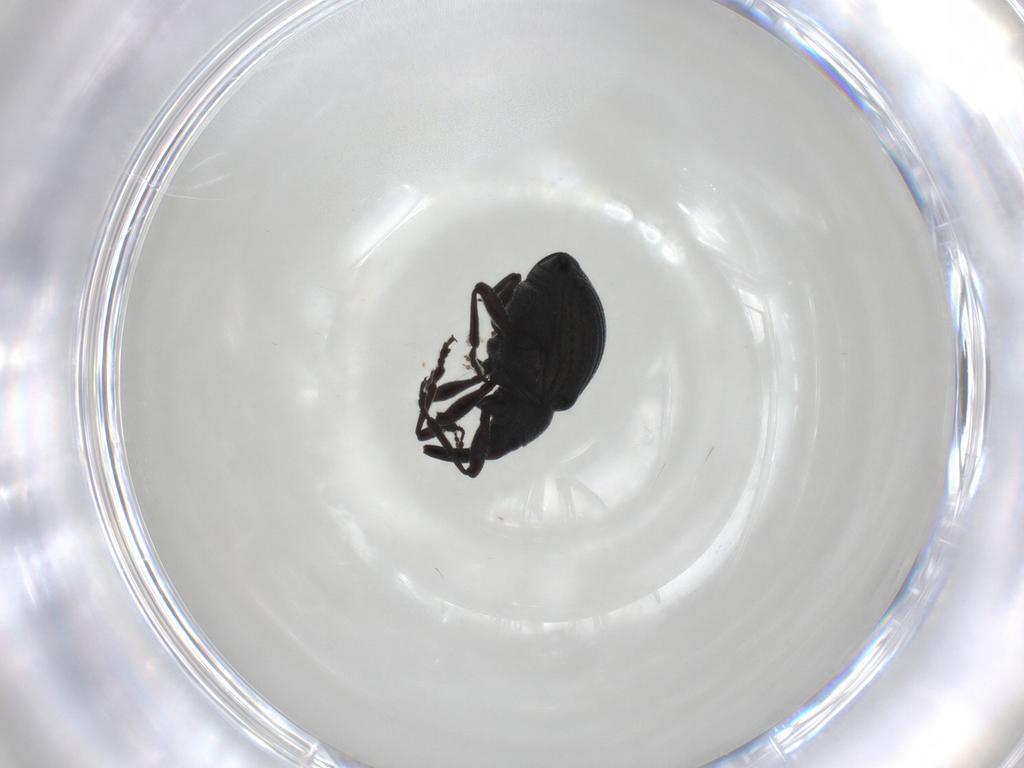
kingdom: Animalia
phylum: Arthropoda
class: Insecta
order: Coleoptera
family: Brentidae
